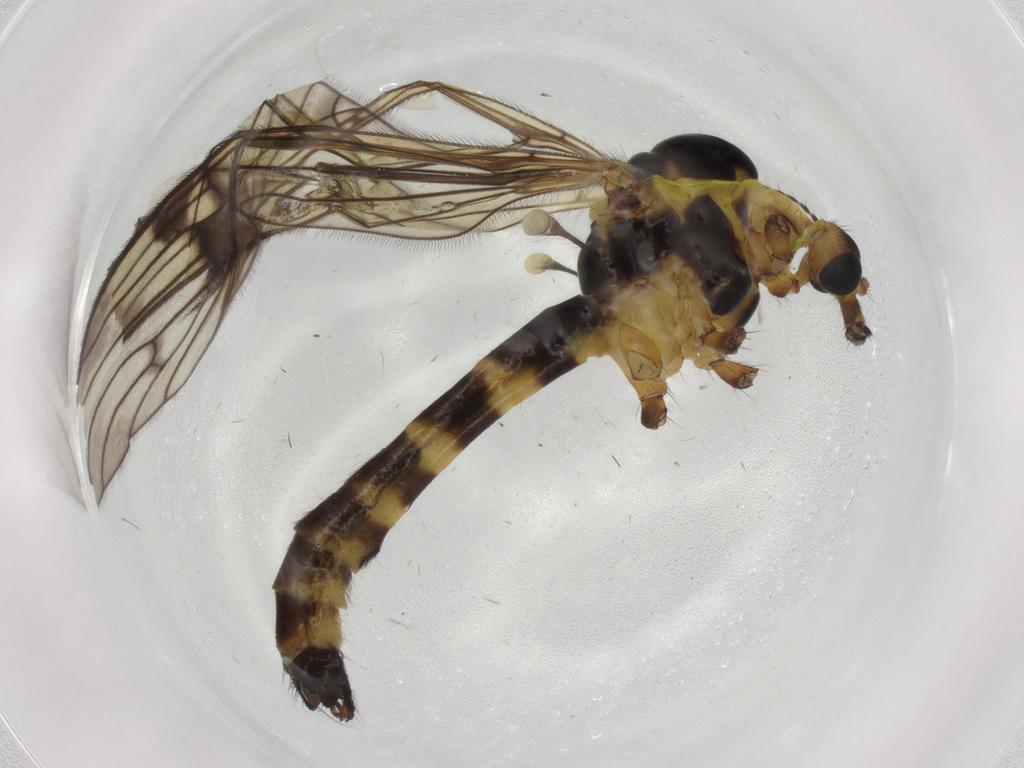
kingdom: Animalia
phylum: Arthropoda
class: Insecta
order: Diptera
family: Limoniidae
